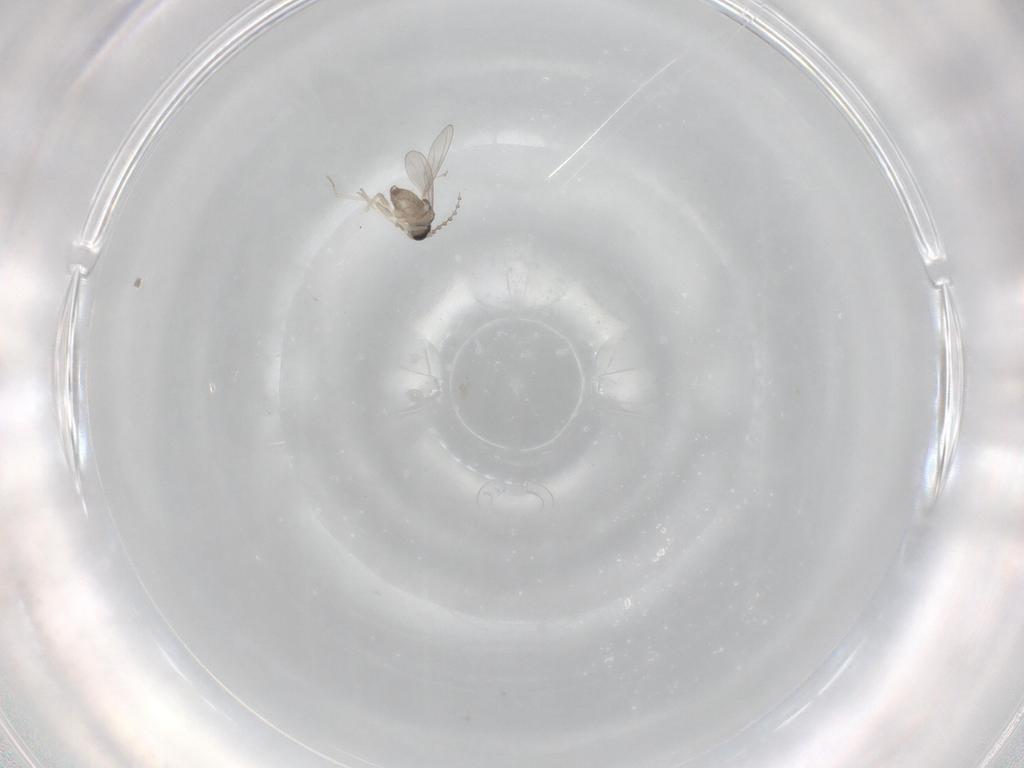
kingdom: Animalia
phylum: Arthropoda
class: Insecta
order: Diptera
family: Cecidomyiidae
